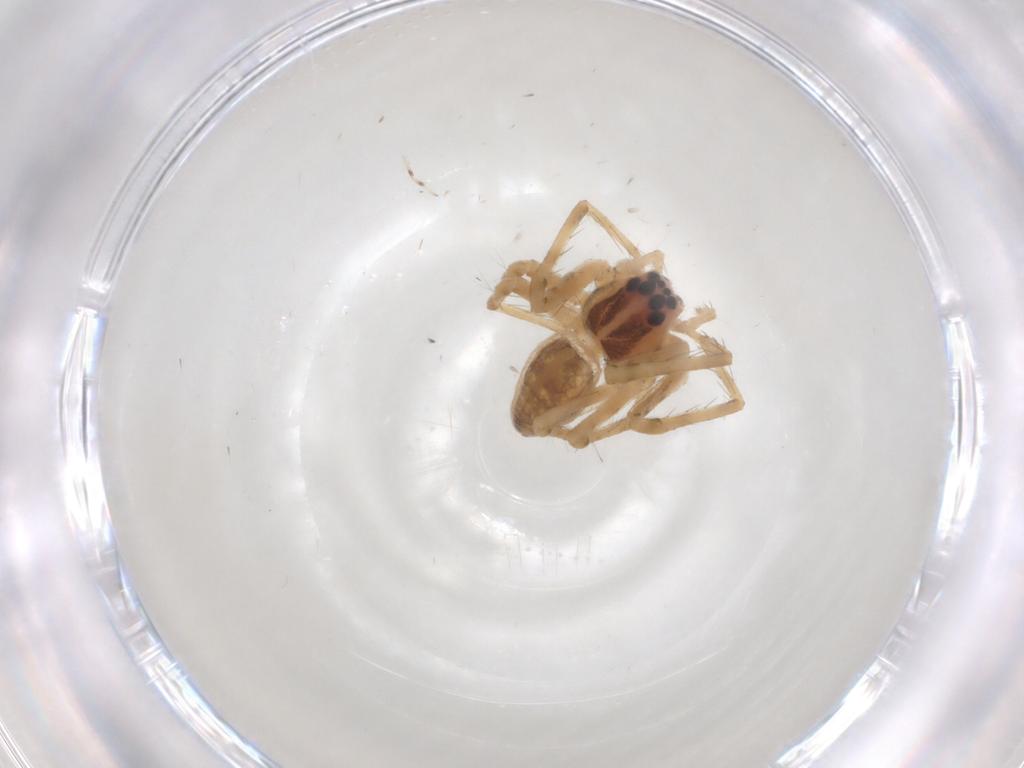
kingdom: Animalia
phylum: Arthropoda
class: Arachnida
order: Araneae
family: Pisauridae
